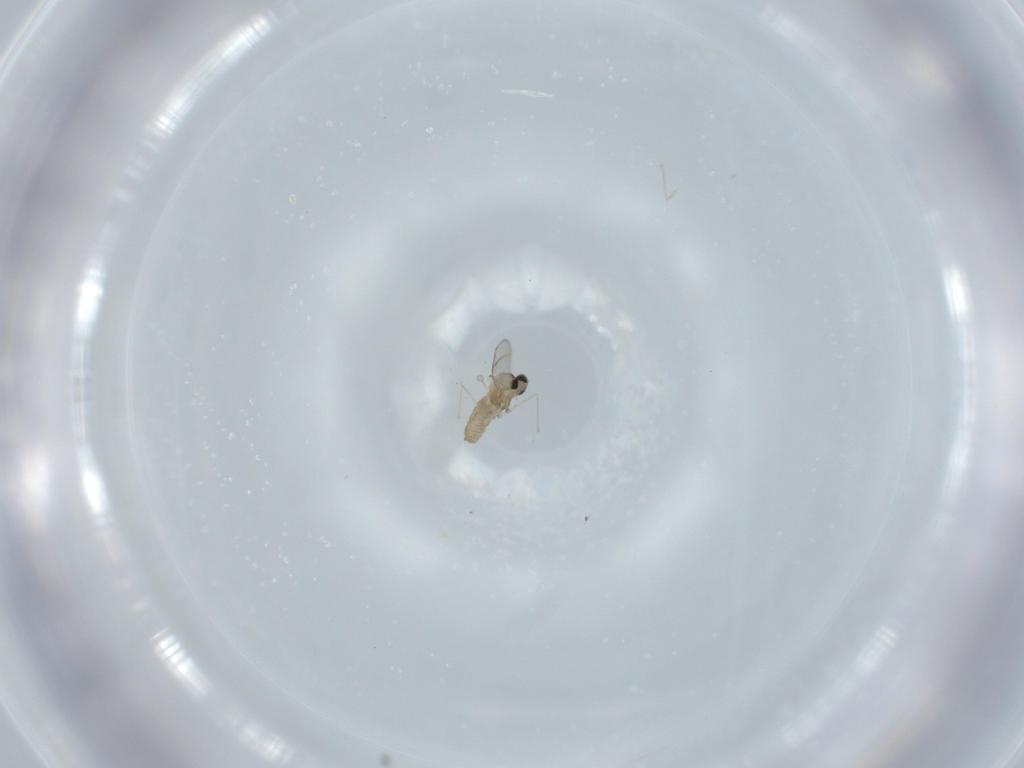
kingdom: Animalia
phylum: Arthropoda
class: Insecta
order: Diptera
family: Cecidomyiidae
